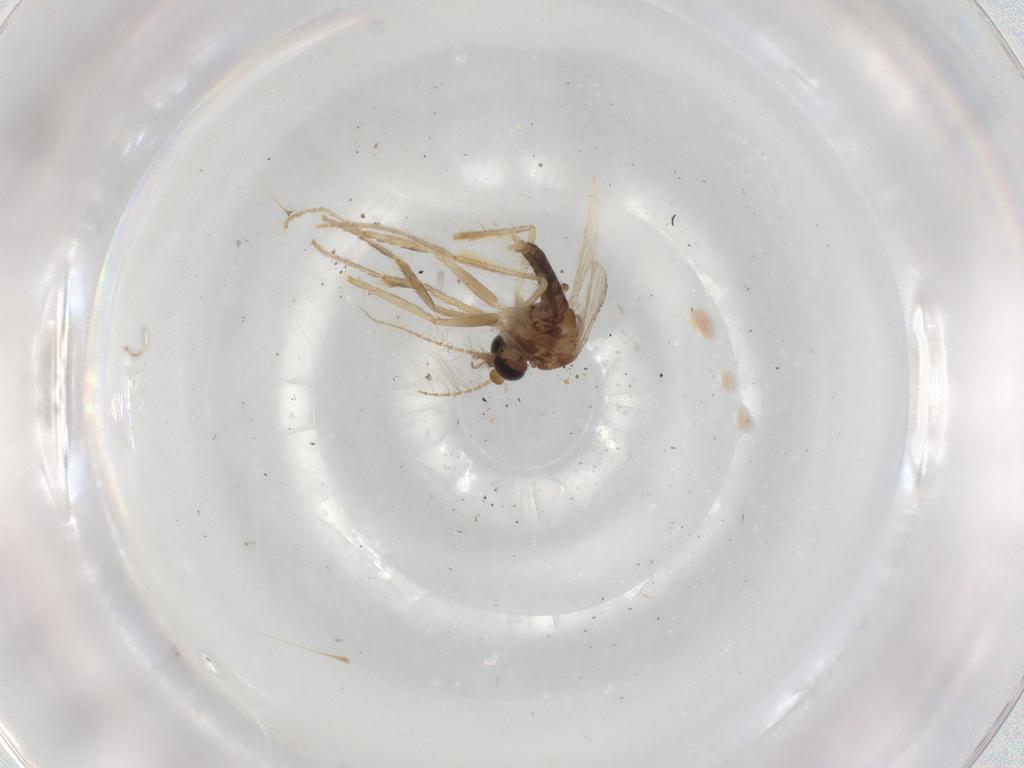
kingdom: Animalia
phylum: Arthropoda
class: Insecta
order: Diptera
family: Corethrellidae
